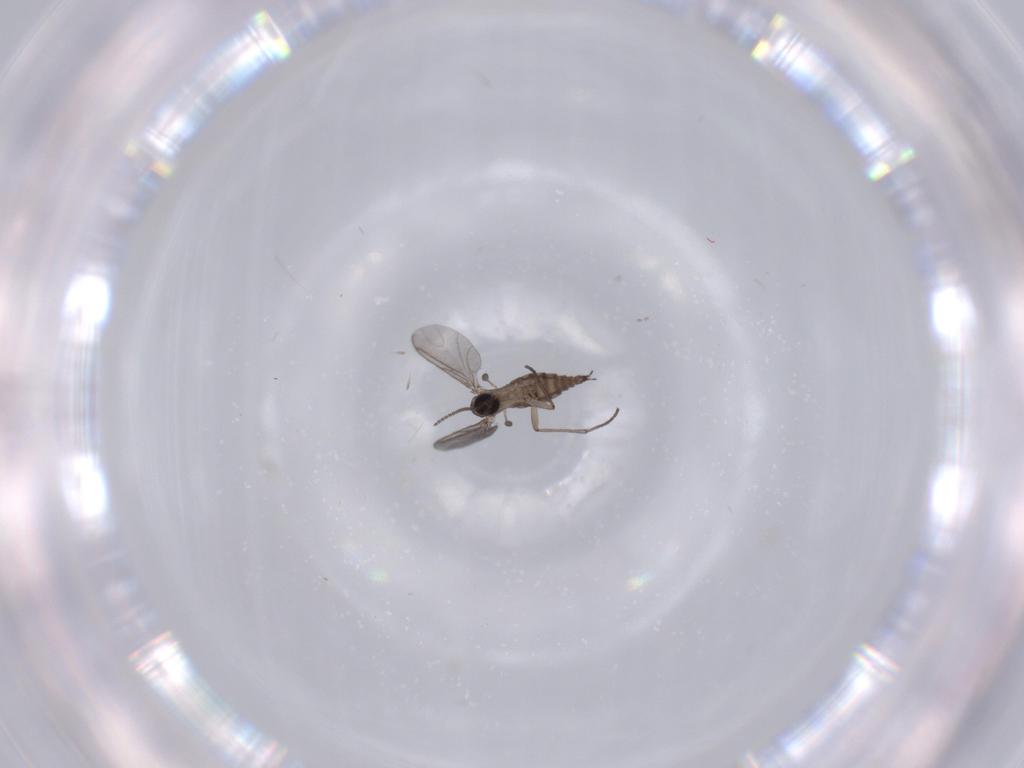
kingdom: Animalia
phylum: Arthropoda
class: Insecta
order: Diptera
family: Sciaridae
